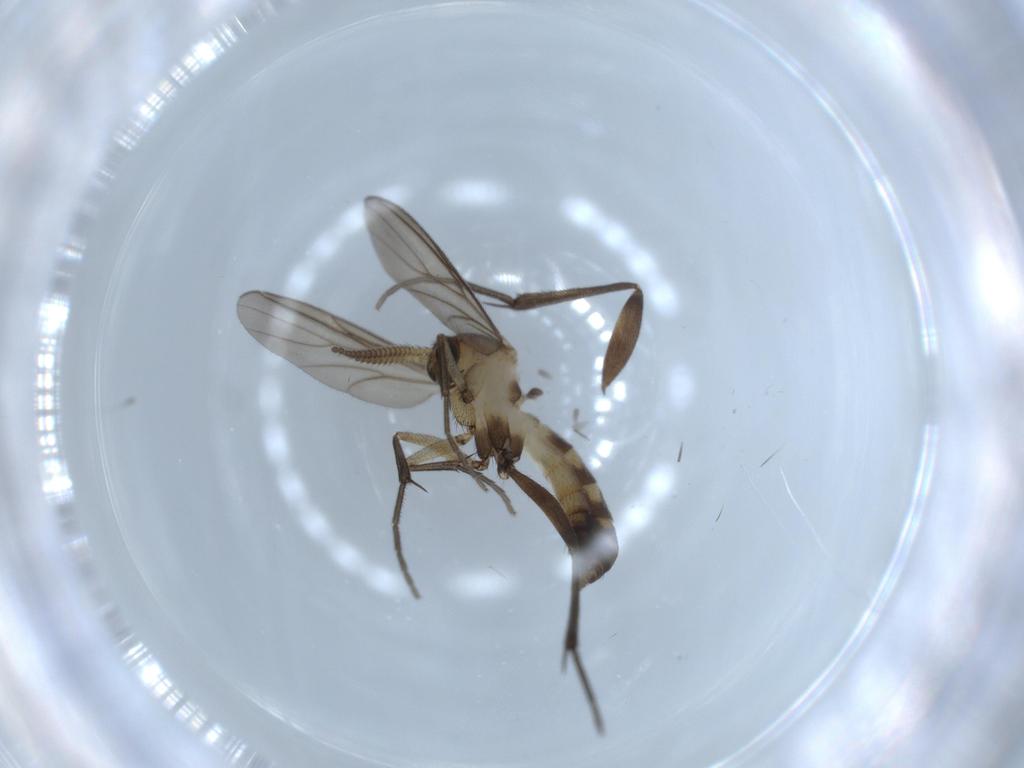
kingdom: Animalia
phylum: Arthropoda
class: Insecta
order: Diptera
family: Mycetophilidae
